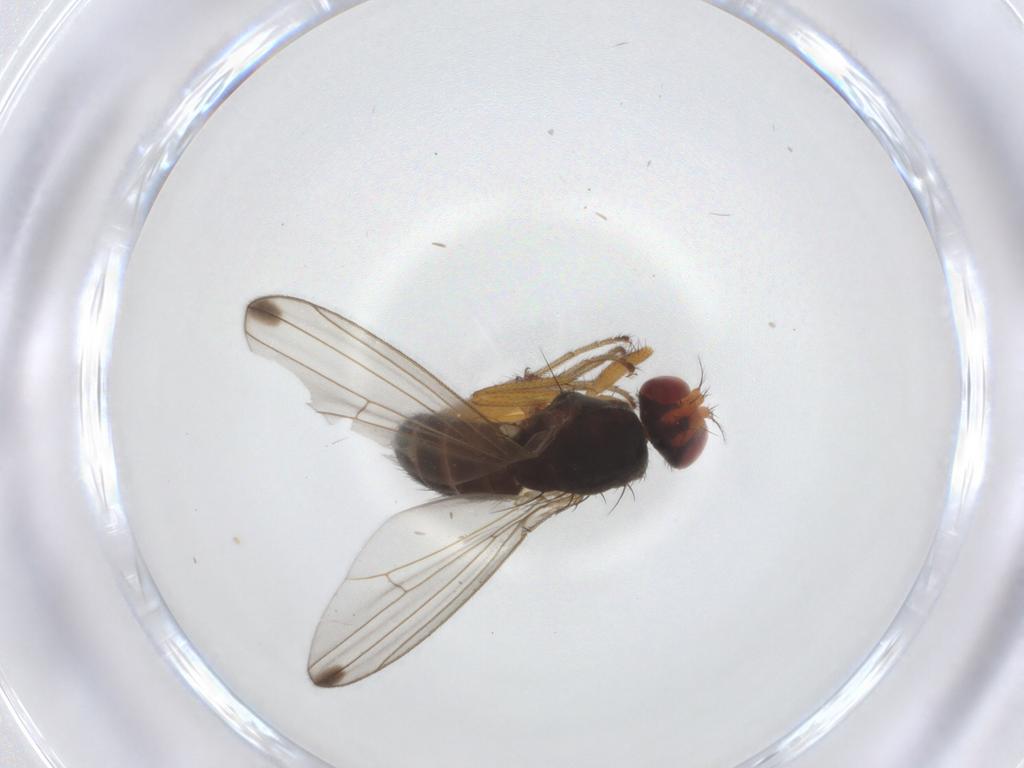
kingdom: Animalia
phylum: Arthropoda
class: Insecta
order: Diptera
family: Drosophilidae
